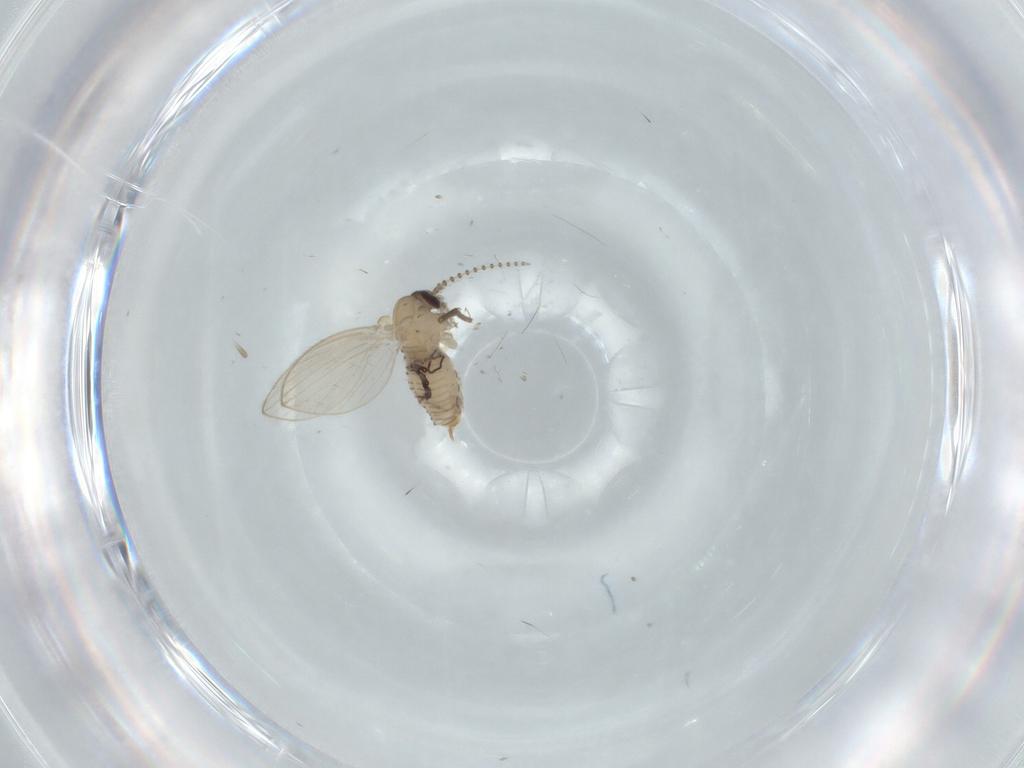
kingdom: Animalia
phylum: Arthropoda
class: Insecta
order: Diptera
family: Psychodidae
